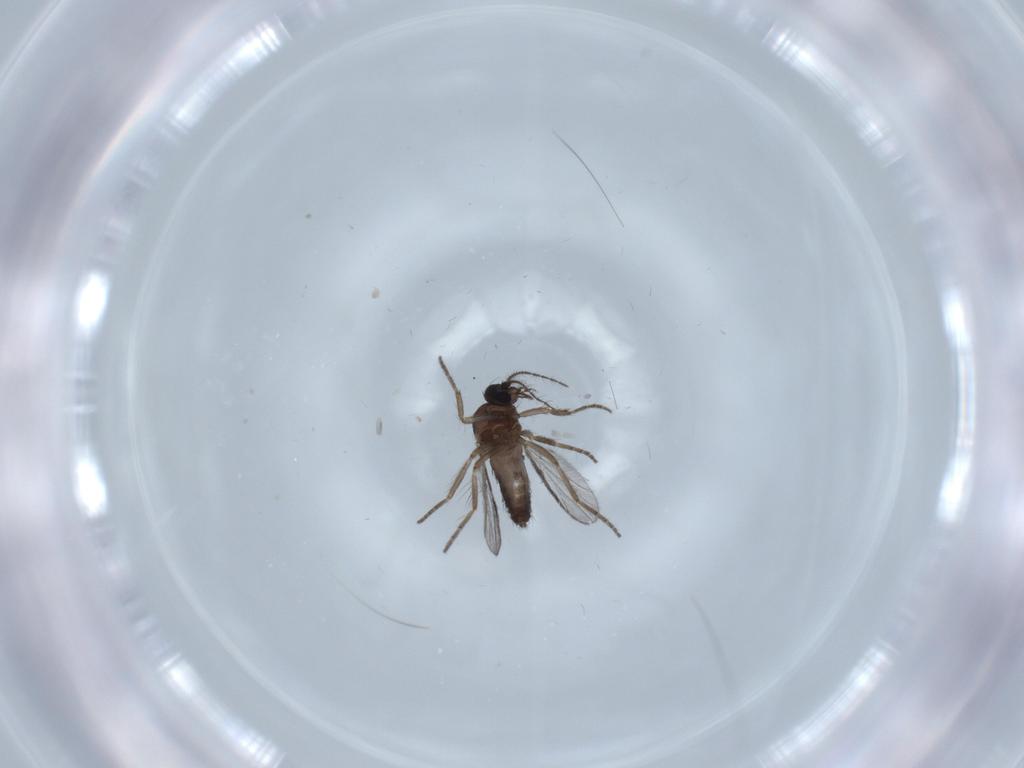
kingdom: Animalia
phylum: Arthropoda
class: Insecta
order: Diptera
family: Dolichopodidae
